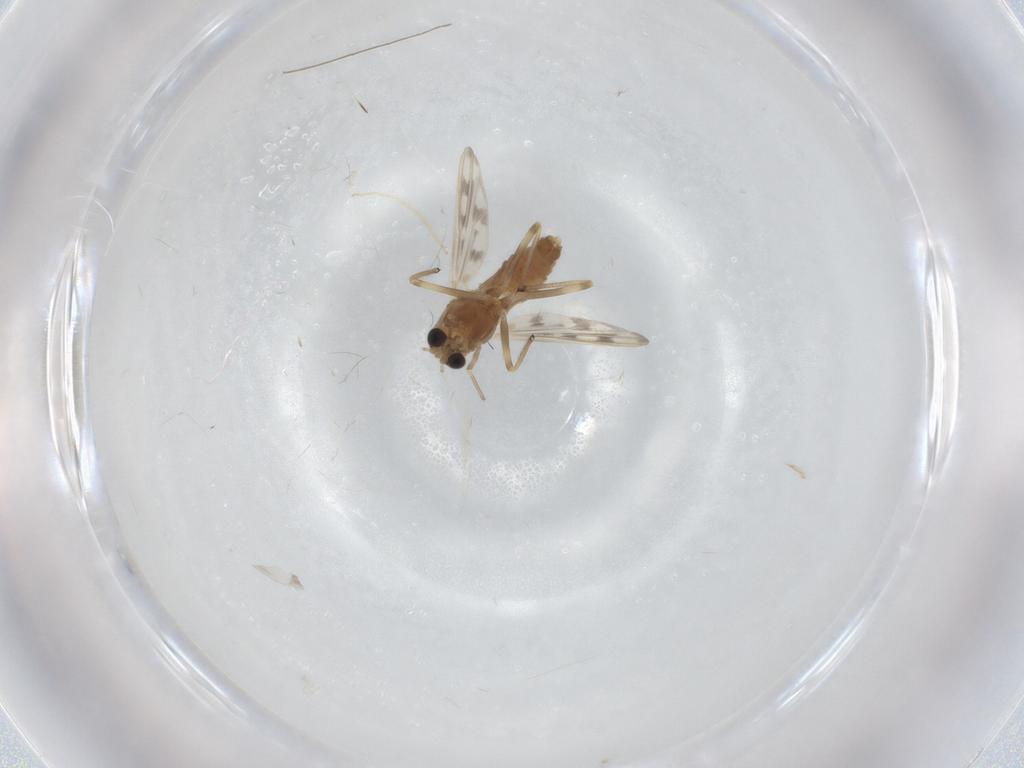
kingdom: Animalia
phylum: Arthropoda
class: Insecta
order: Diptera
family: Chironomidae
